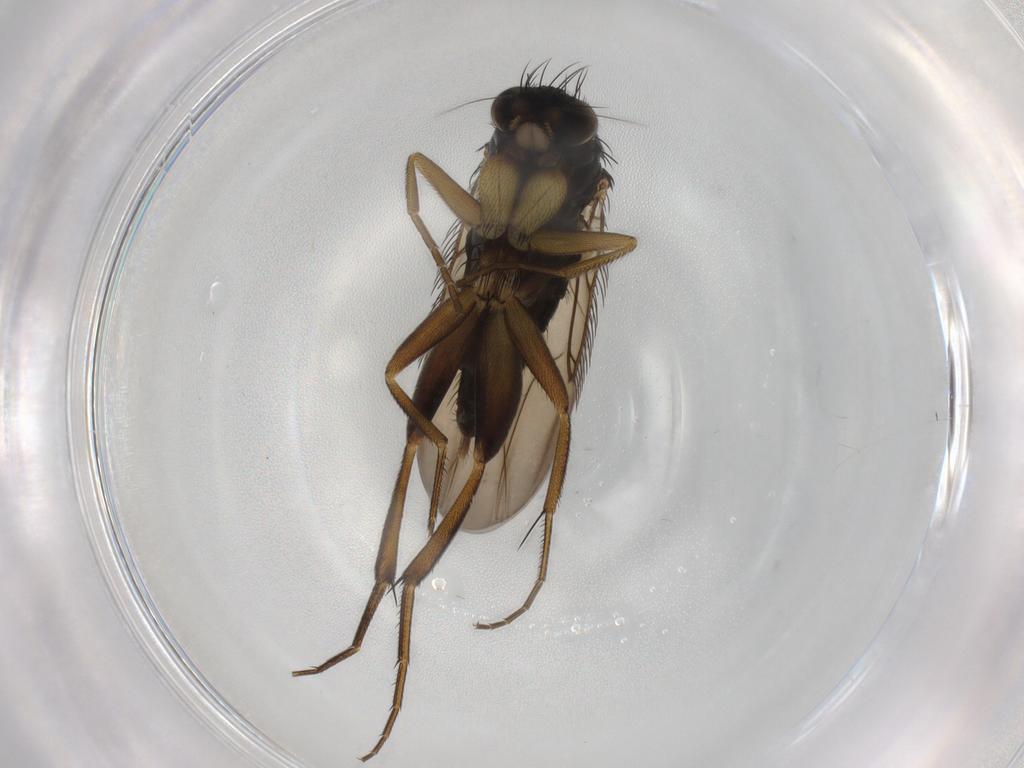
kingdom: Animalia
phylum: Arthropoda
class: Insecta
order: Diptera
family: Phoridae
